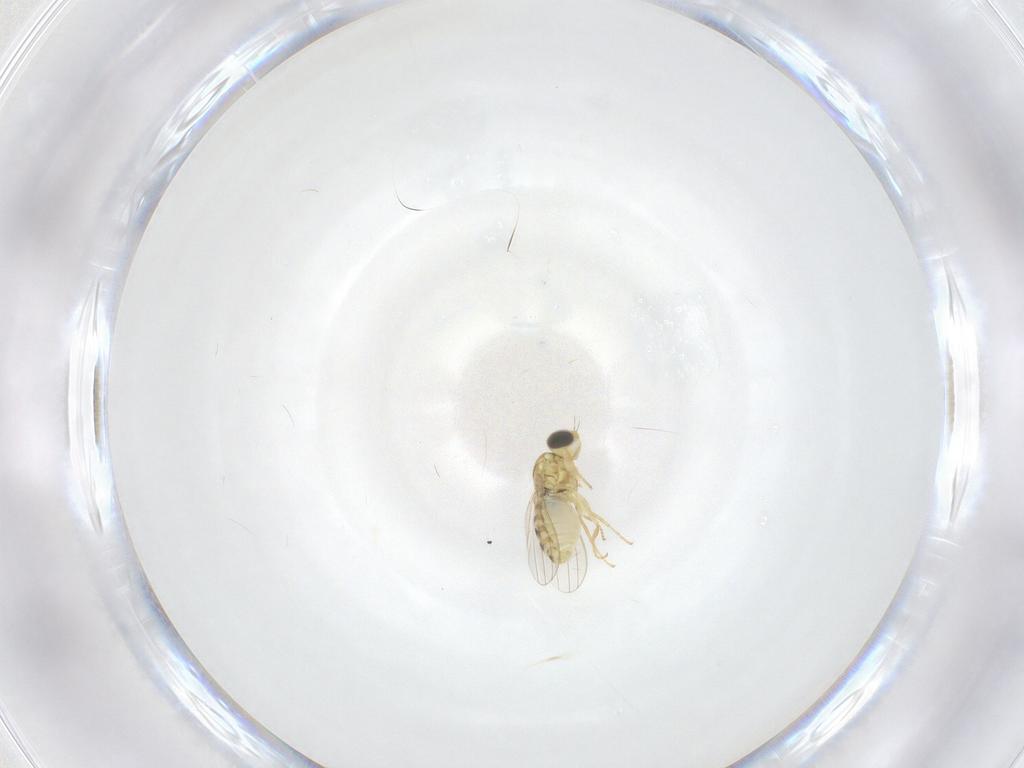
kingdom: Animalia
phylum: Arthropoda
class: Insecta
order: Diptera
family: Chyromyidae
